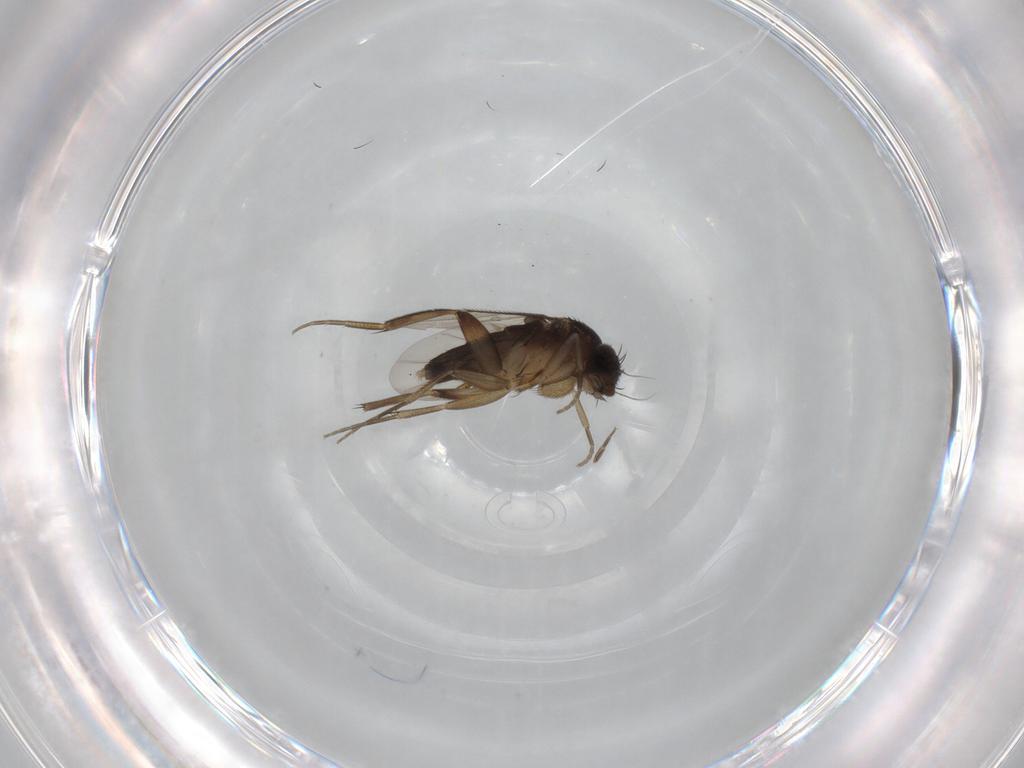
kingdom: Animalia
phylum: Arthropoda
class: Insecta
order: Diptera
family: Phoridae
